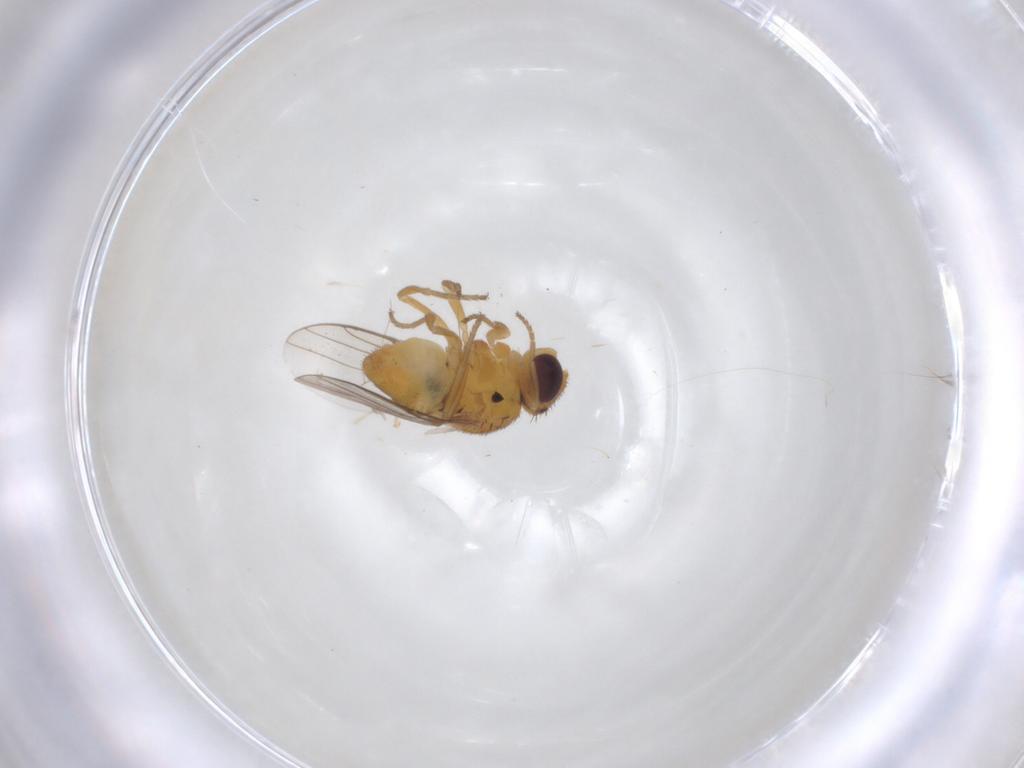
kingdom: Animalia
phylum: Arthropoda
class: Insecta
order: Diptera
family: Chloropidae
